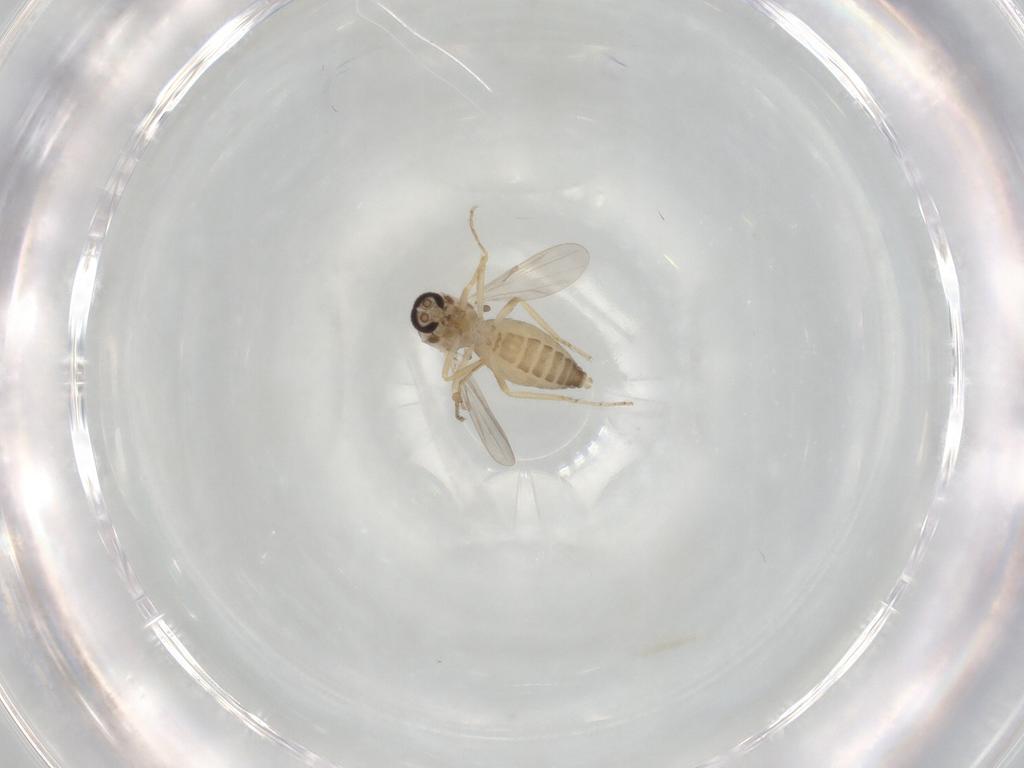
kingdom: Animalia
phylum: Arthropoda
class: Insecta
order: Diptera
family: Ceratopogonidae
